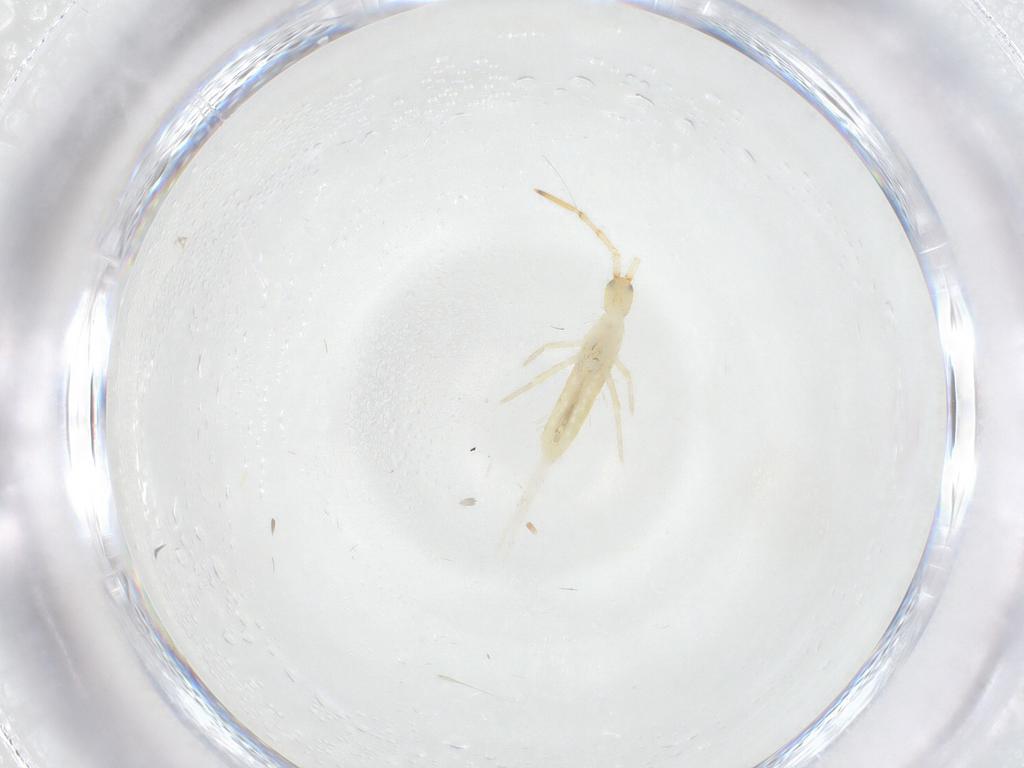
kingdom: Animalia
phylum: Arthropoda
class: Collembola
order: Entomobryomorpha
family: Entomobryidae
